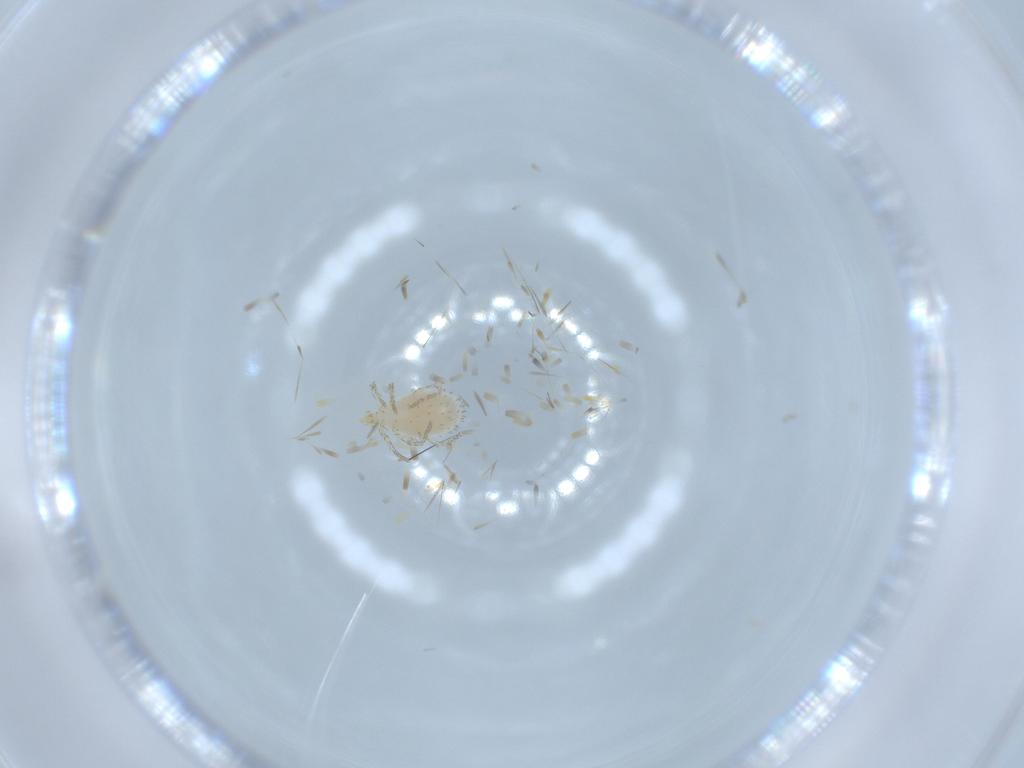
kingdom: Animalia
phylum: Arthropoda
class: Arachnida
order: Trombidiformes
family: Erythraeidae
